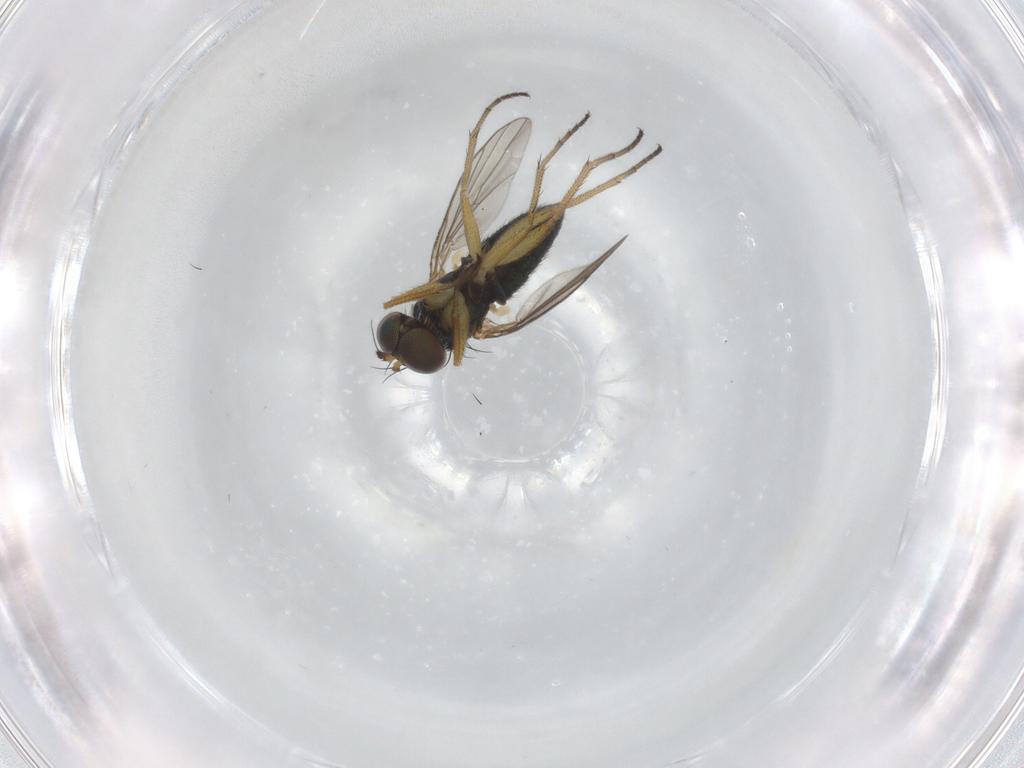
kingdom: Animalia
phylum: Arthropoda
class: Insecta
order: Diptera
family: Dolichopodidae
